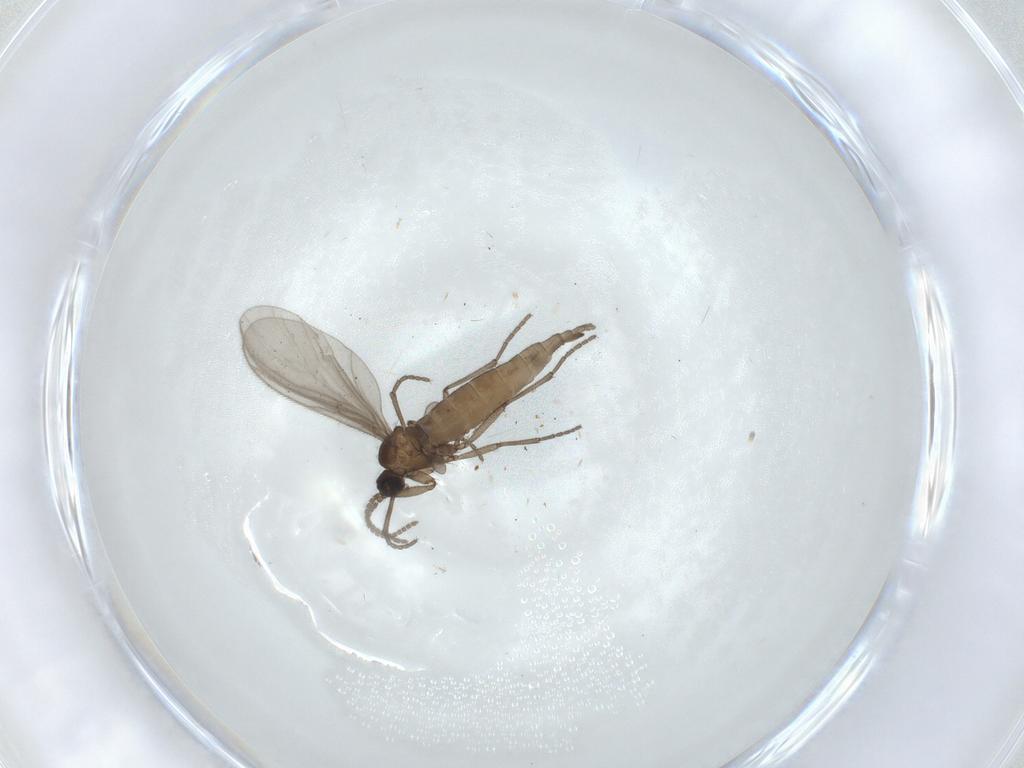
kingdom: Animalia
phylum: Arthropoda
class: Insecta
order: Diptera
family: Sciaridae
